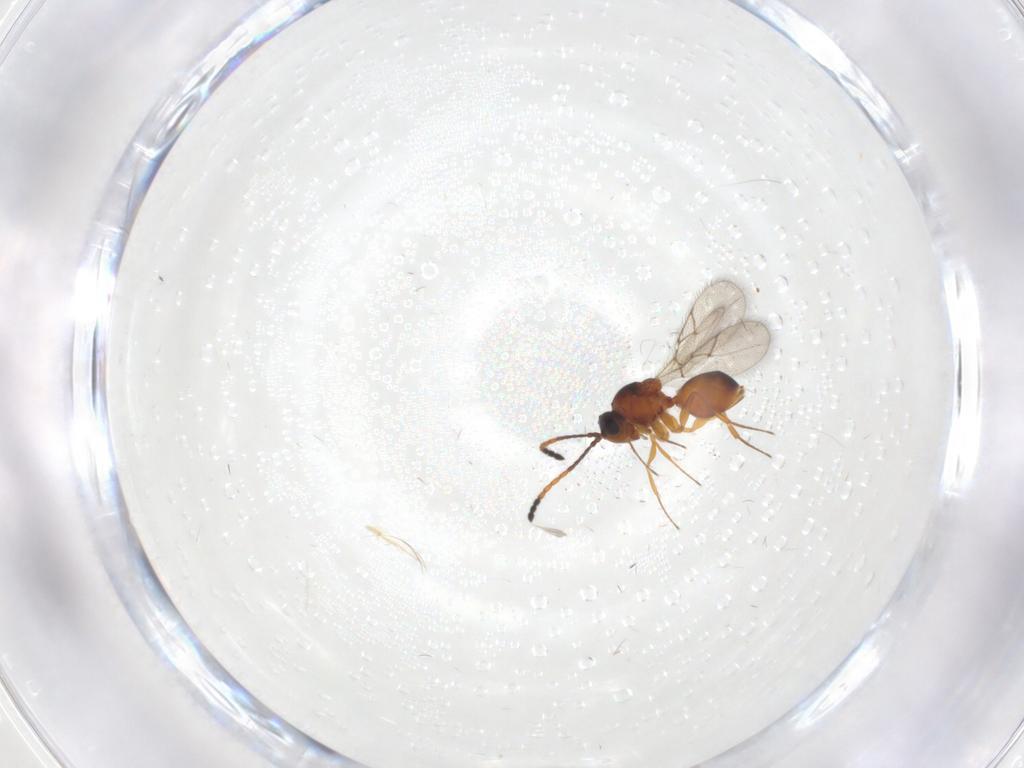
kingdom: Animalia
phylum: Arthropoda
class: Insecta
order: Hymenoptera
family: Figitidae
